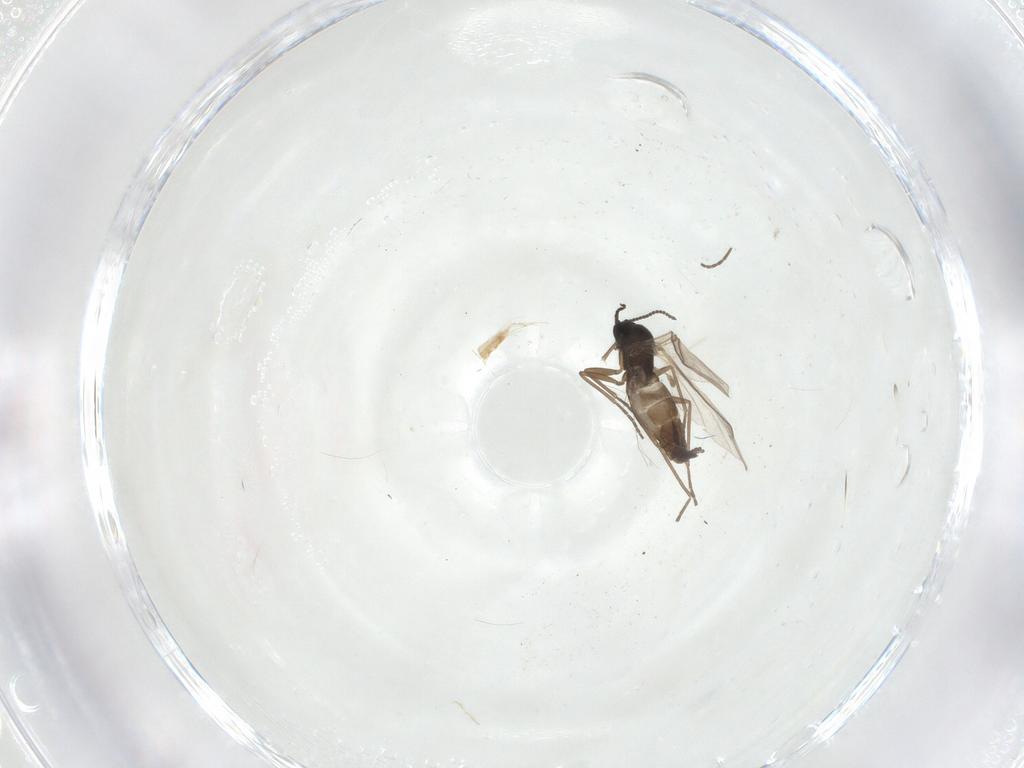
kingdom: Animalia
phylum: Arthropoda
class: Insecta
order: Diptera
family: Sciaridae
